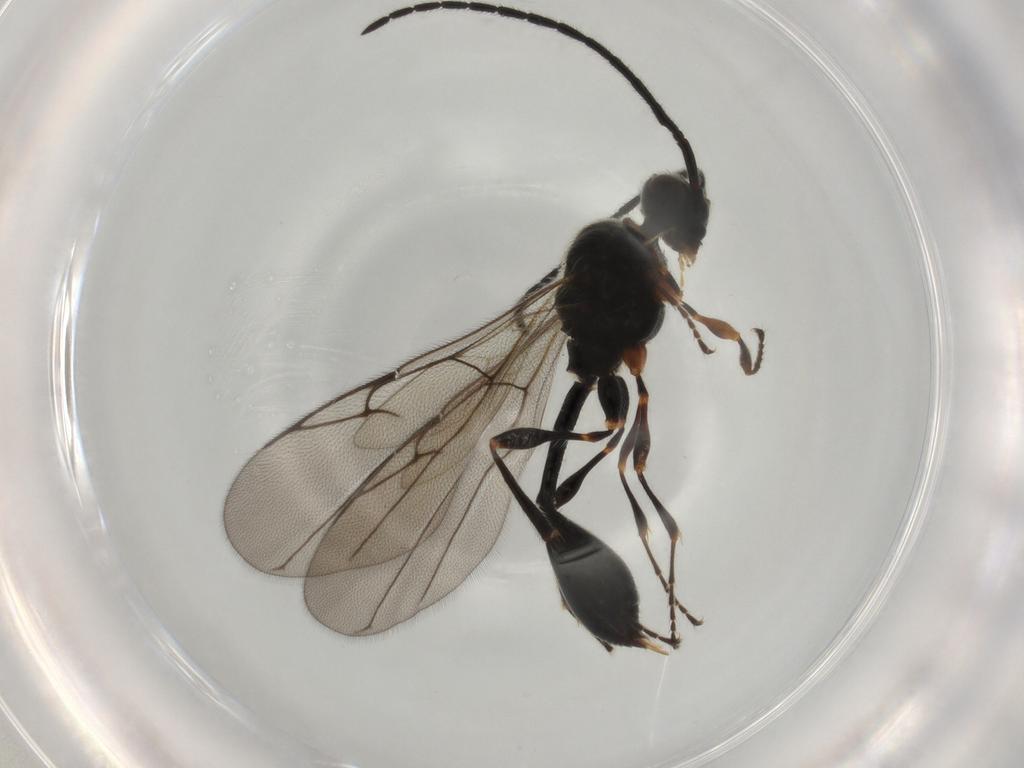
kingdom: Animalia
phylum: Arthropoda
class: Insecta
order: Hymenoptera
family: Diapriidae
